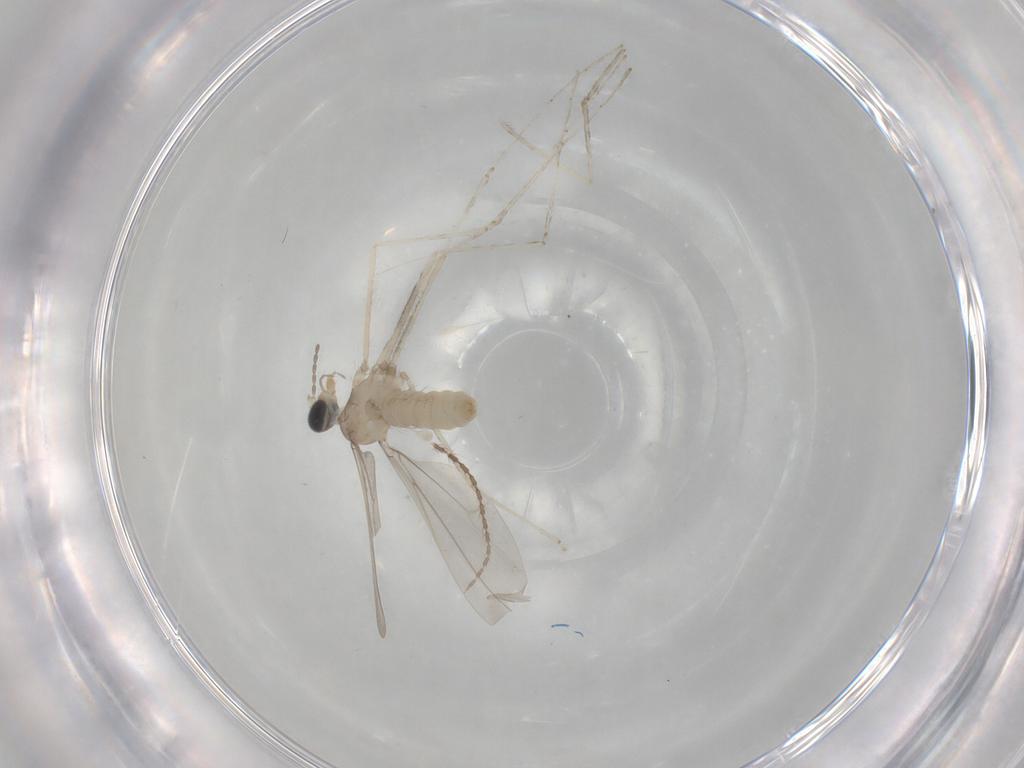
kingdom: Animalia
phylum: Arthropoda
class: Insecta
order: Diptera
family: Cecidomyiidae
